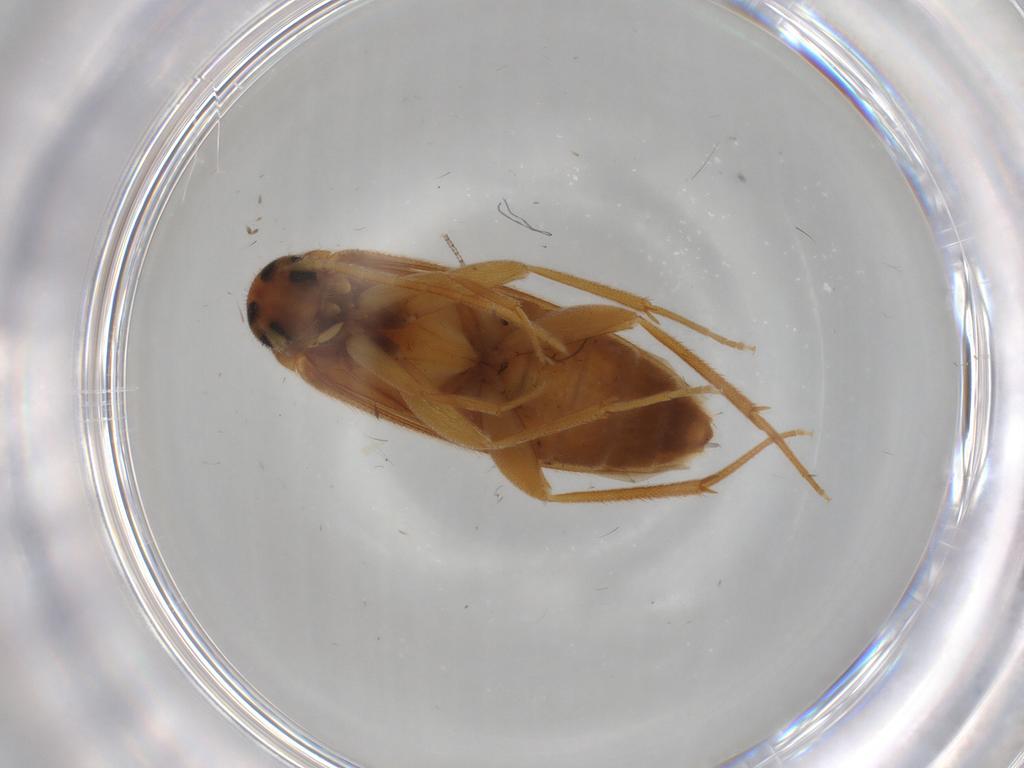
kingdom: Animalia
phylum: Arthropoda
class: Insecta
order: Coleoptera
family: Scraptiidae
